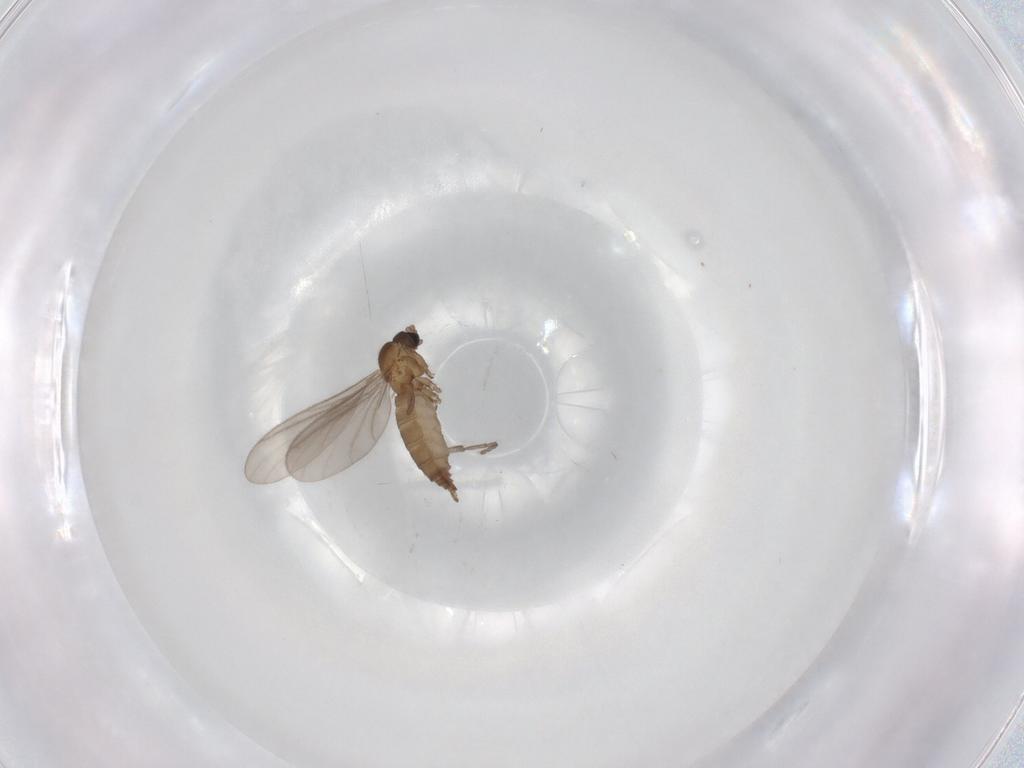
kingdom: Animalia
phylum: Arthropoda
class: Insecta
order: Diptera
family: Sciaridae
